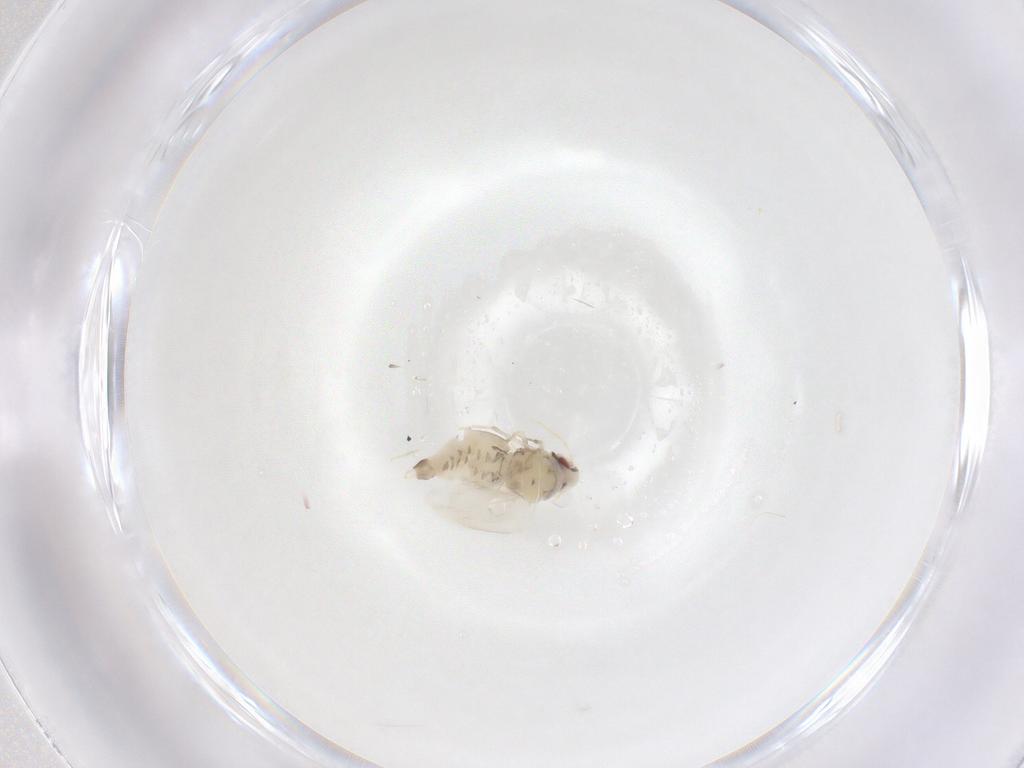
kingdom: Animalia
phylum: Arthropoda
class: Insecta
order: Hemiptera
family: Aleyrodidae
